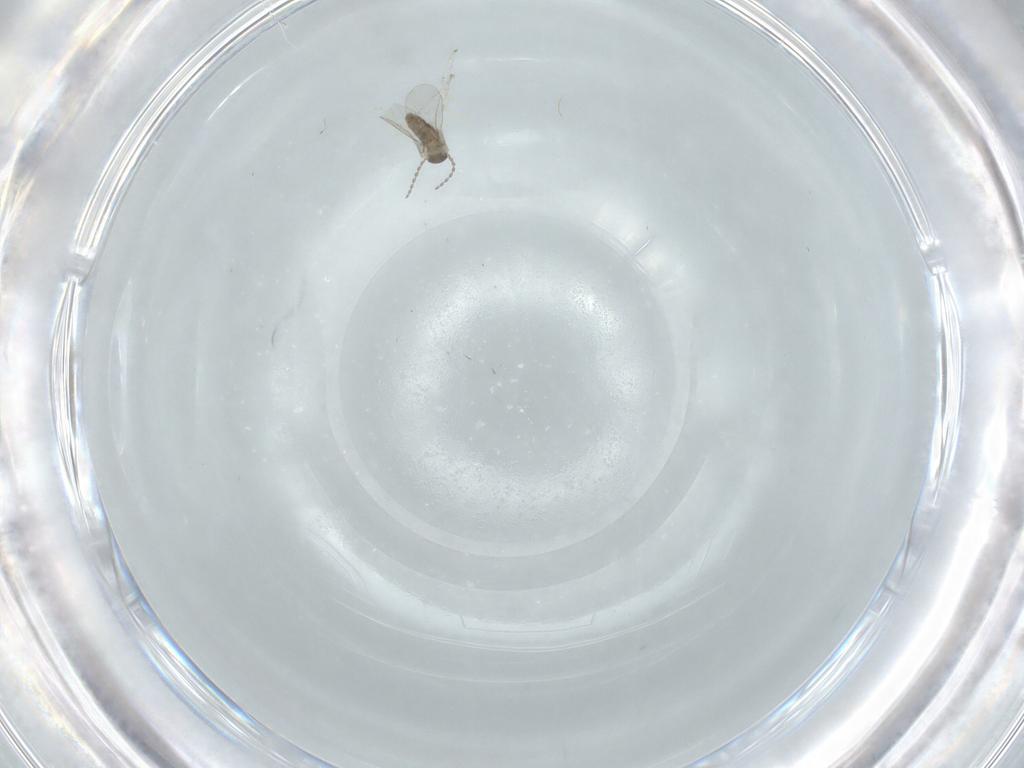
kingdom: Animalia
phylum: Arthropoda
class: Insecta
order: Diptera
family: Cecidomyiidae
